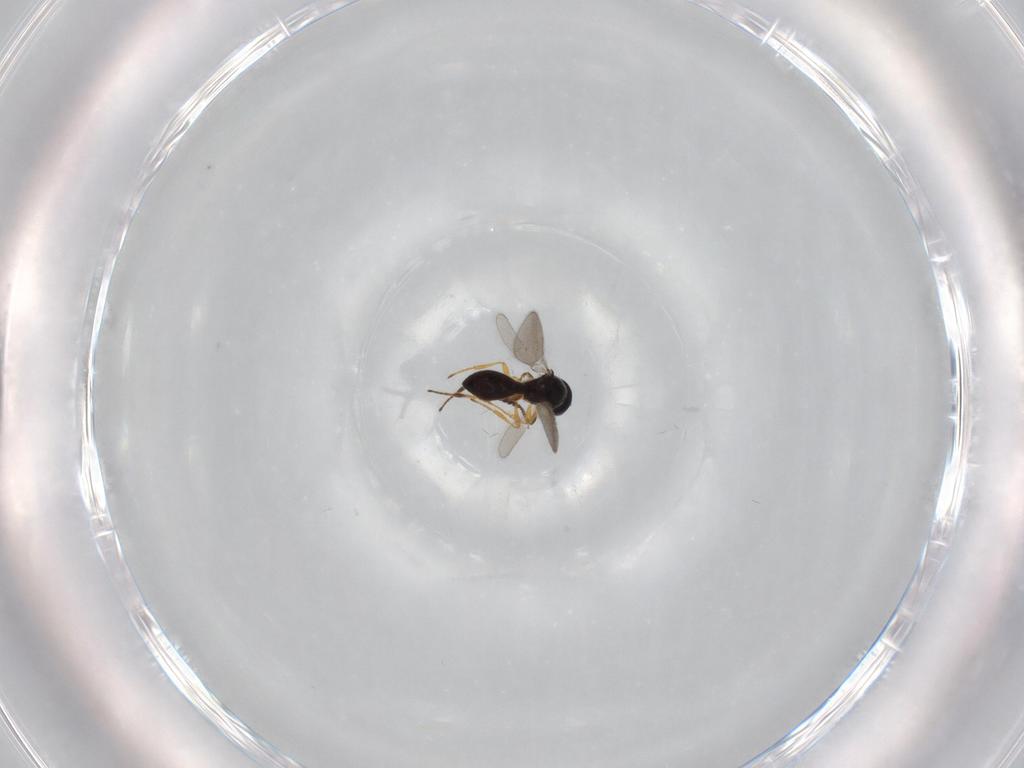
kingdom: Animalia
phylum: Arthropoda
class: Insecta
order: Hymenoptera
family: Platygastridae
